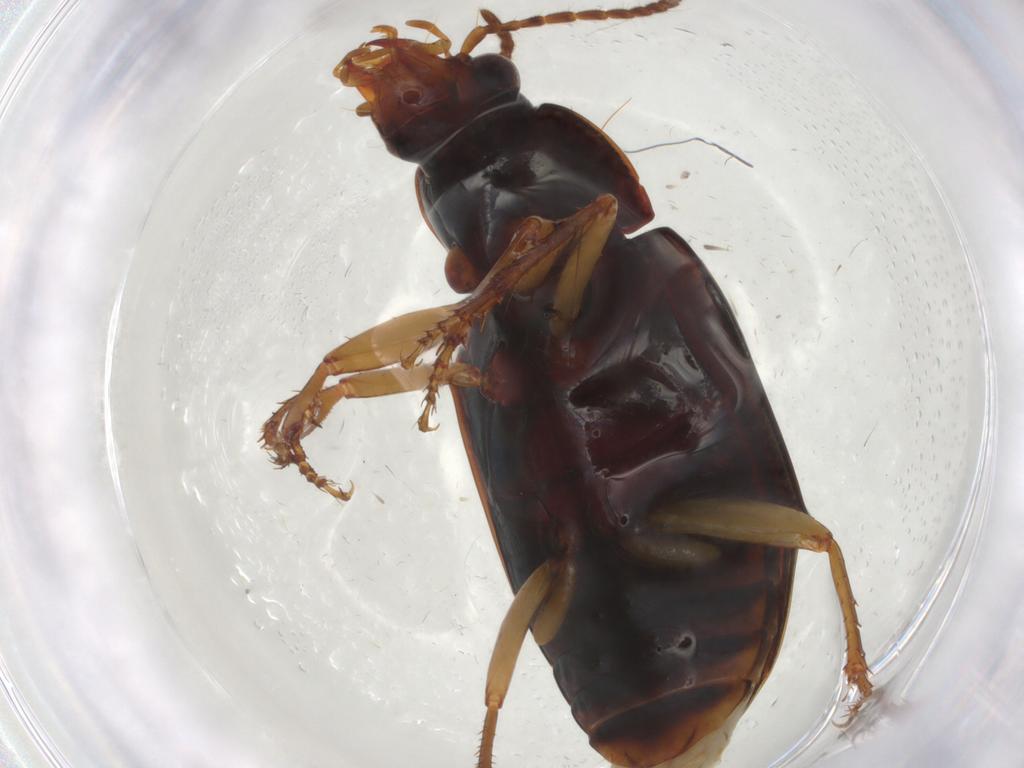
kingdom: Animalia
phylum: Arthropoda
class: Insecta
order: Coleoptera
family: Carabidae
